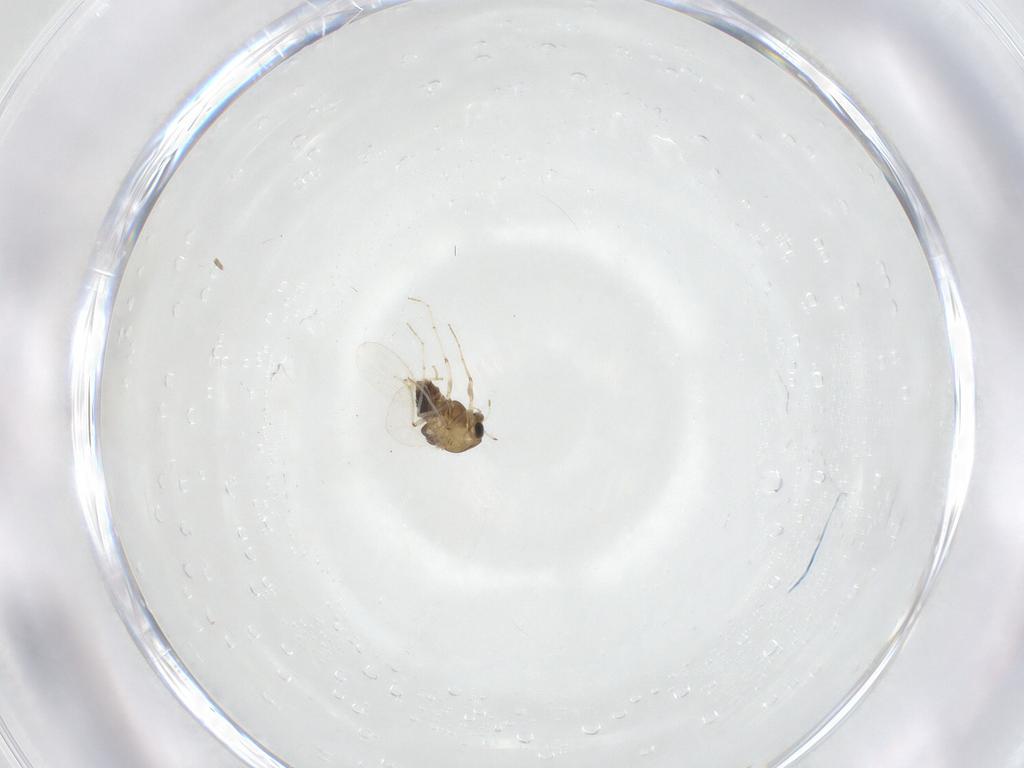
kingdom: Animalia
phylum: Arthropoda
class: Insecta
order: Diptera
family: Chironomidae
